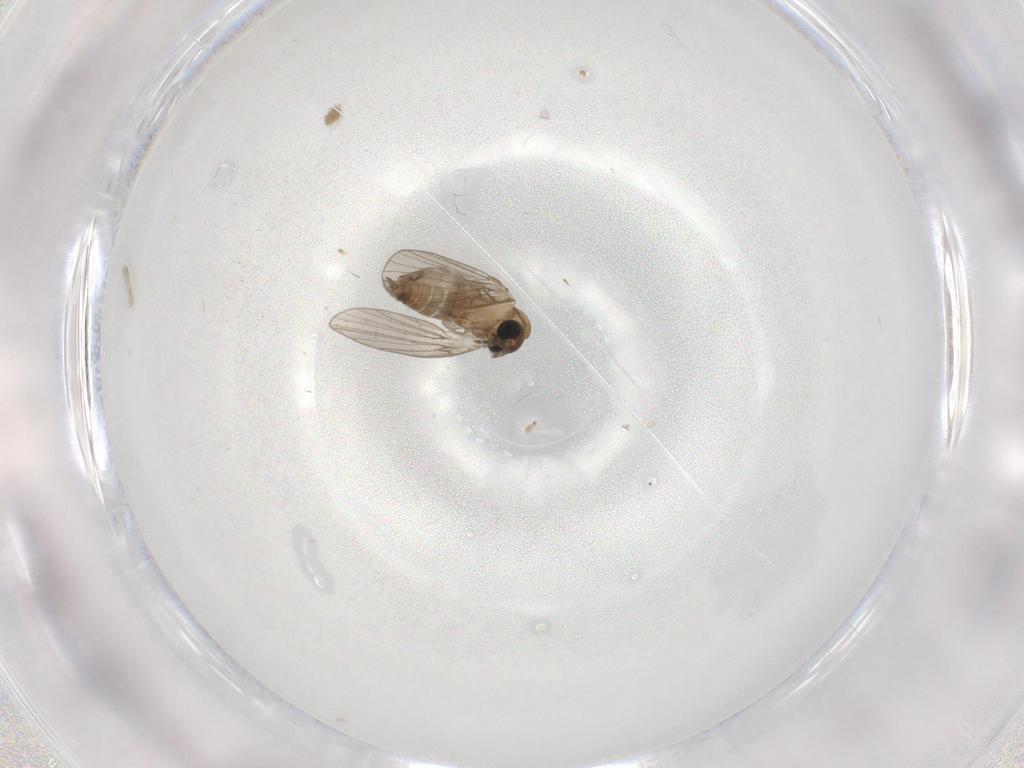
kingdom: Animalia
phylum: Arthropoda
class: Insecta
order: Diptera
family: Psychodidae
